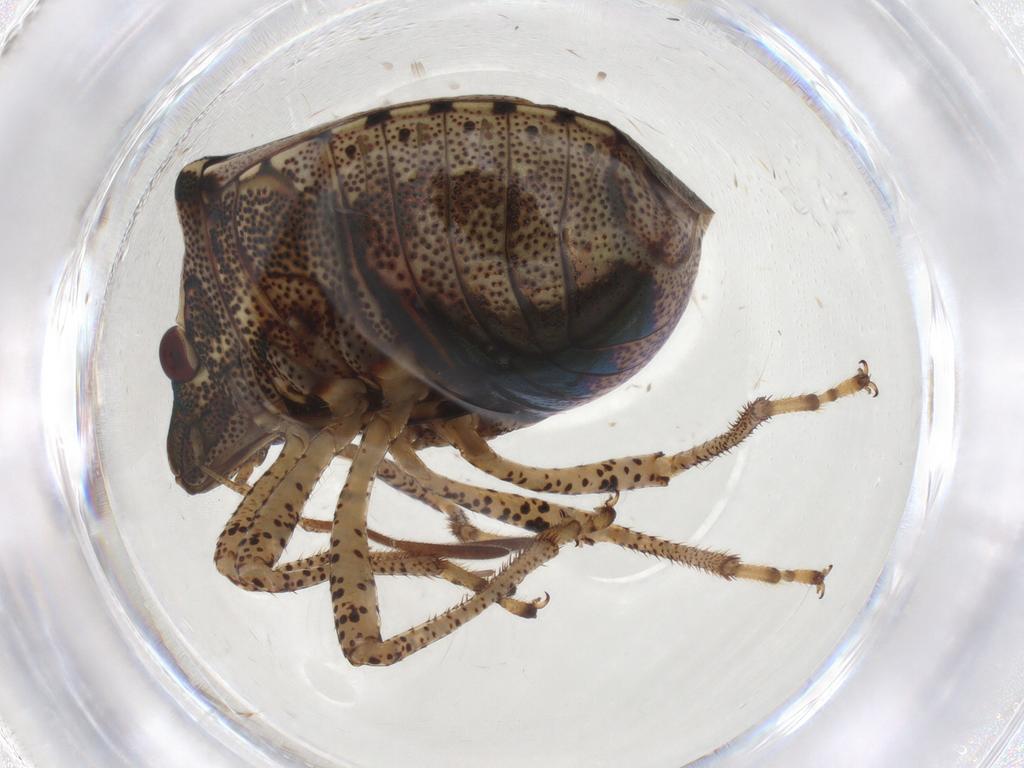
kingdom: Animalia
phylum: Arthropoda
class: Insecta
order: Hemiptera
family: Pentatomidae
